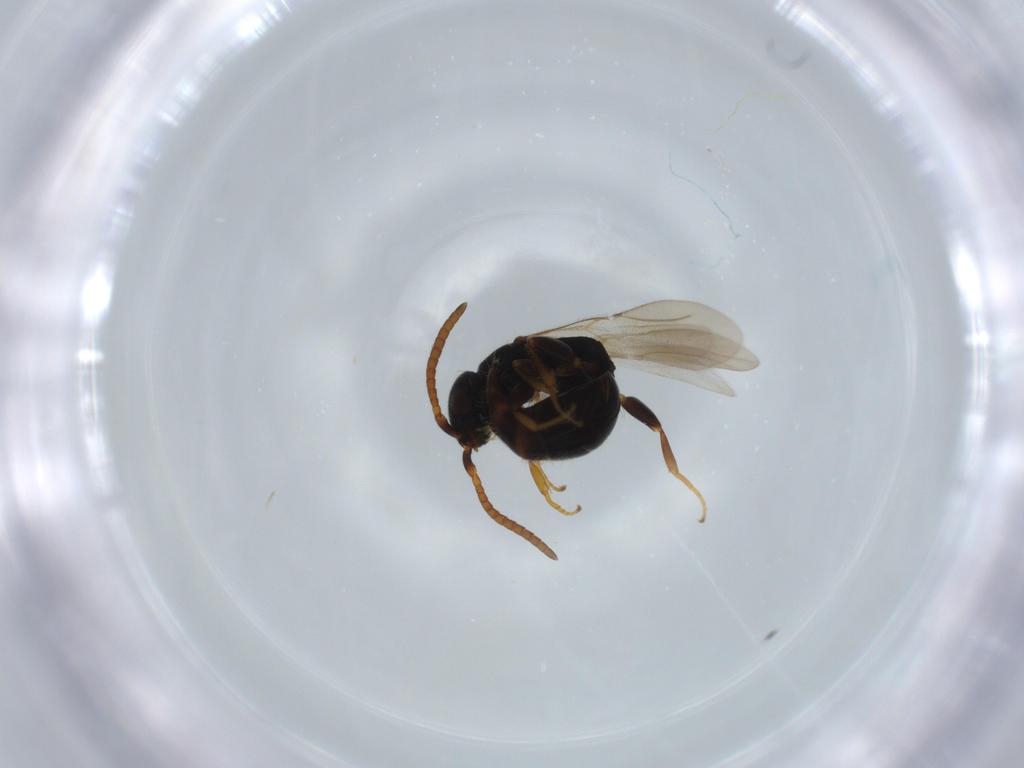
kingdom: Animalia
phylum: Arthropoda
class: Insecta
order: Hymenoptera
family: Bethylidae
